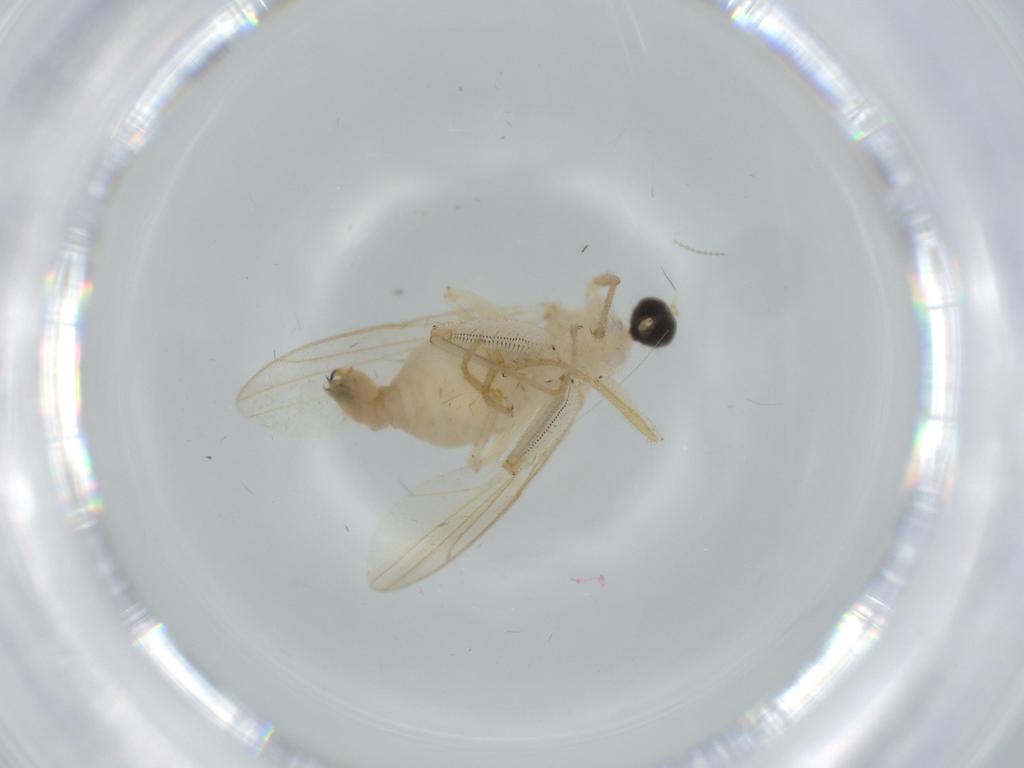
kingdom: Animalia
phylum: Arthropoda
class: Insecta
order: Diptera
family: Hybotidae
